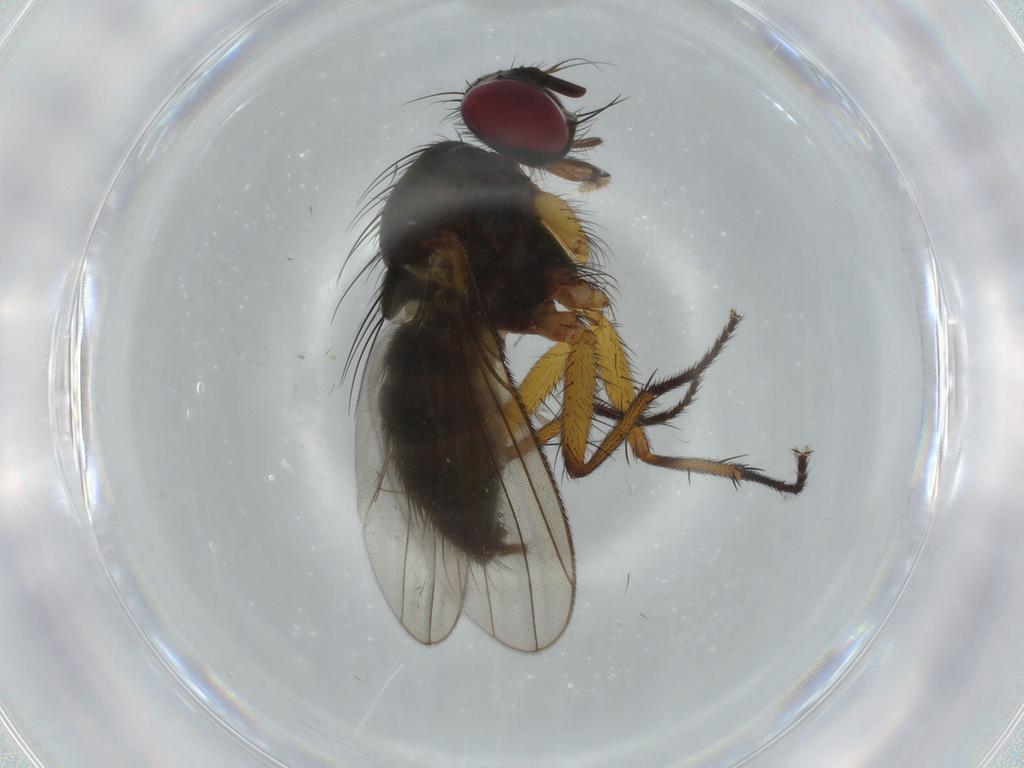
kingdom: Animalia
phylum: Arthropoda
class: Insecta
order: Diptera
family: Muscidae
